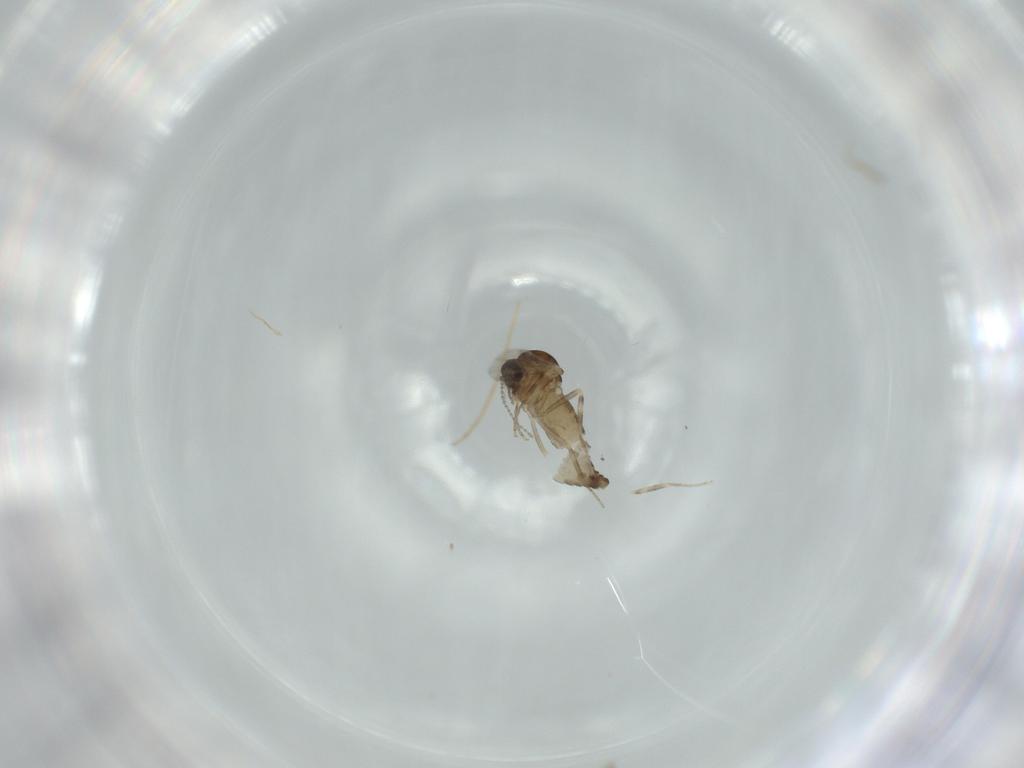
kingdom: Animalia
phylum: Arthropoda
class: Insecta
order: Diptera
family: Ceratopogonidae
